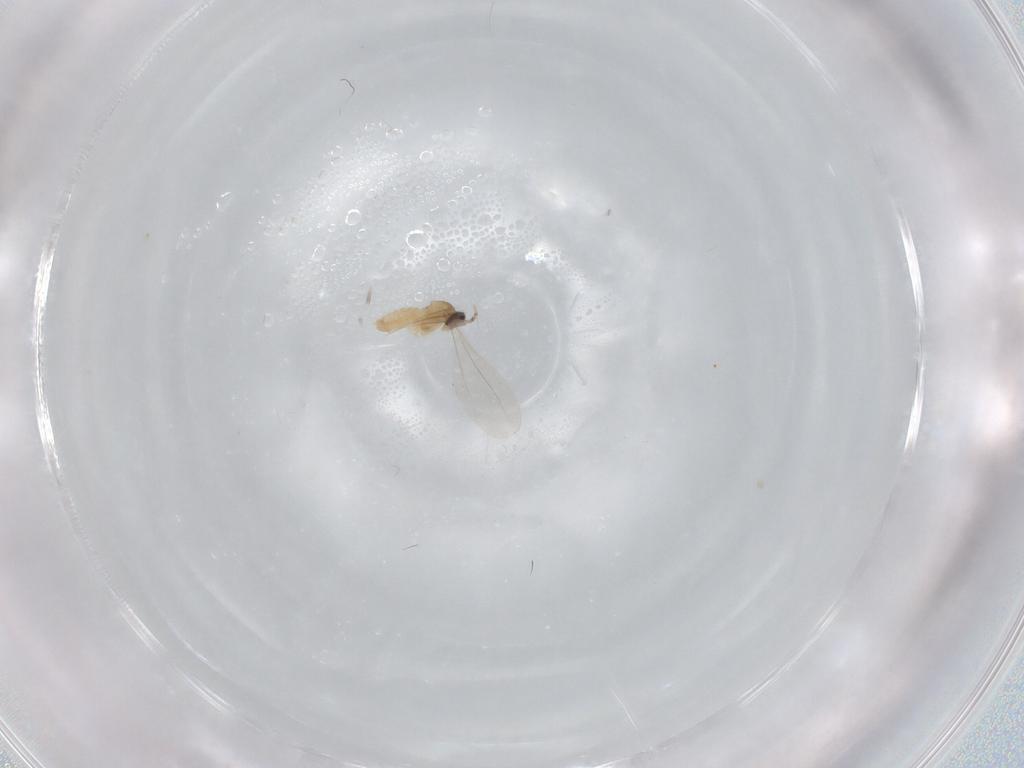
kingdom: Animalia
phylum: Arthropoda
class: Insecta
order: Diptera
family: Cecidomyiidae
